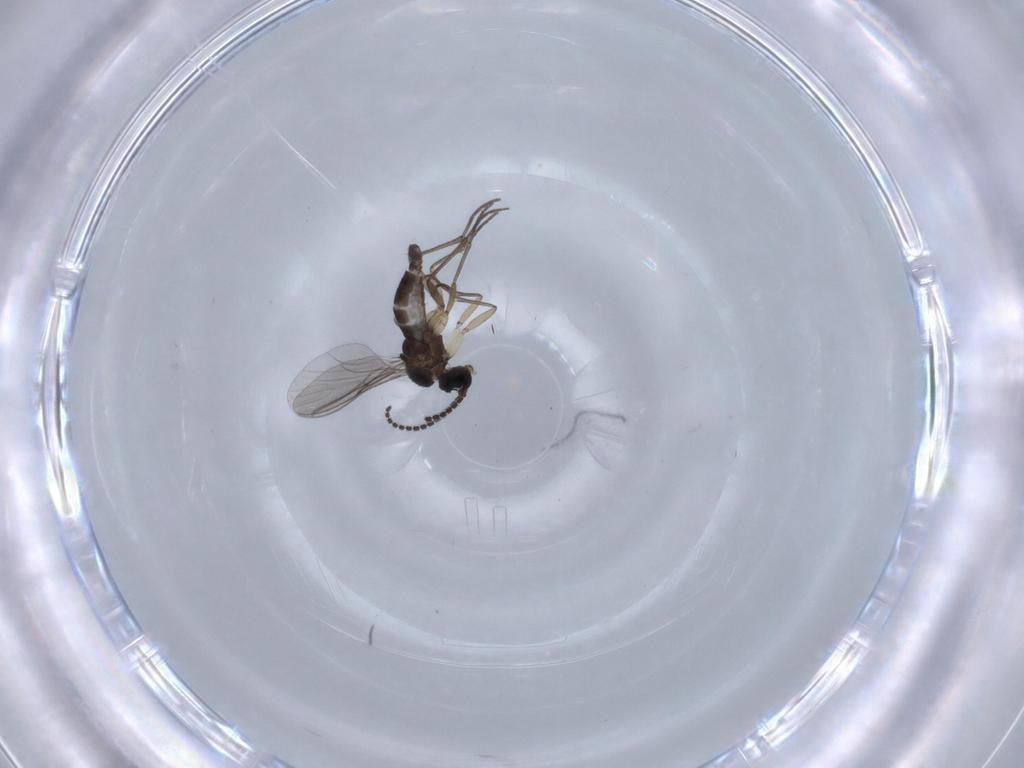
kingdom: Animalia
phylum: Arthropoda
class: Insecta
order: Diptera
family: Sciaridae
